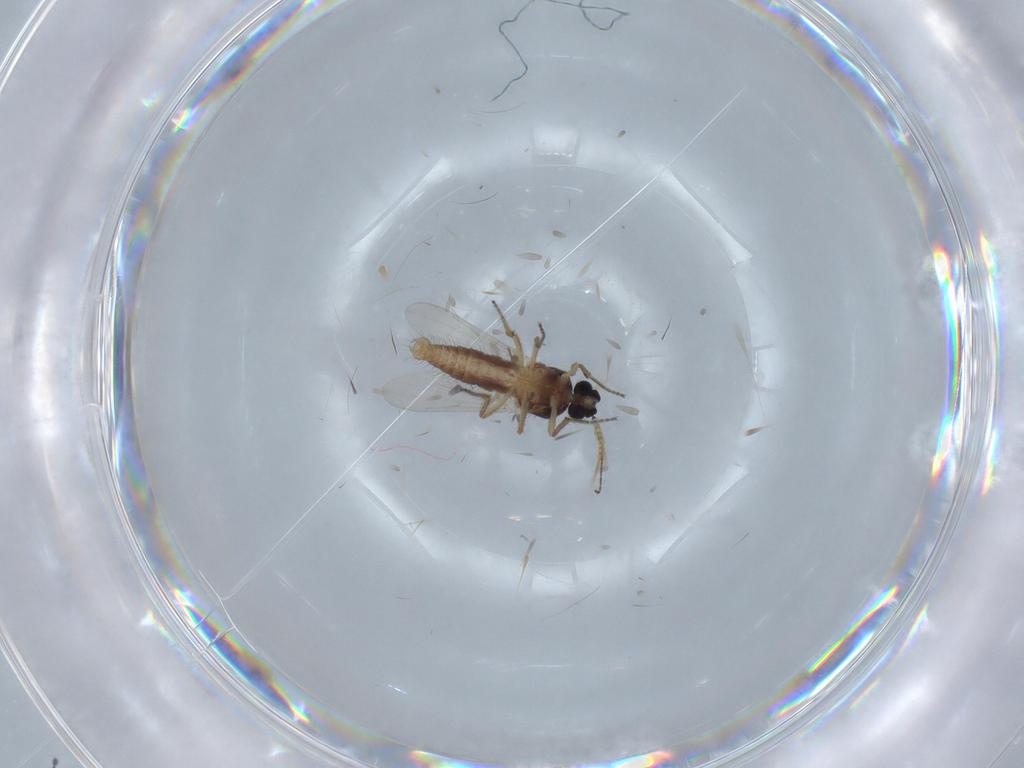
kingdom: Animalia
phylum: Arthropoda
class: Insecta
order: Diptera
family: Ceratopogonidae
